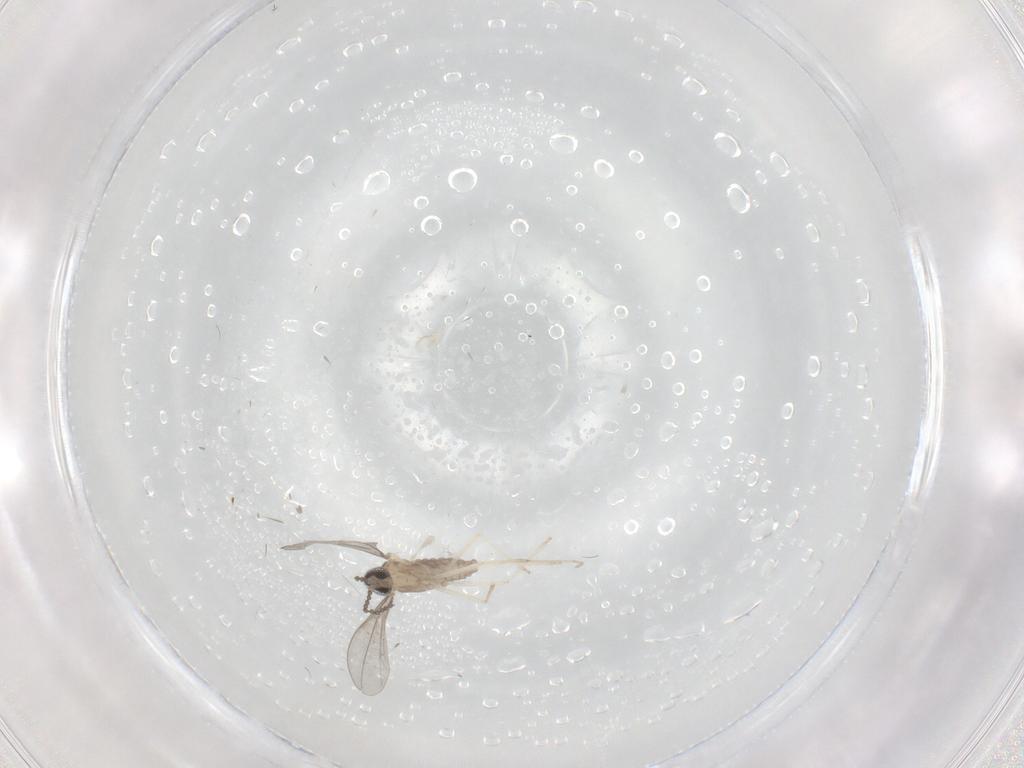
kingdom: Animalia
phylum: Arthropoda
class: Insecta
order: Diptera
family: Cecidomyiidae
